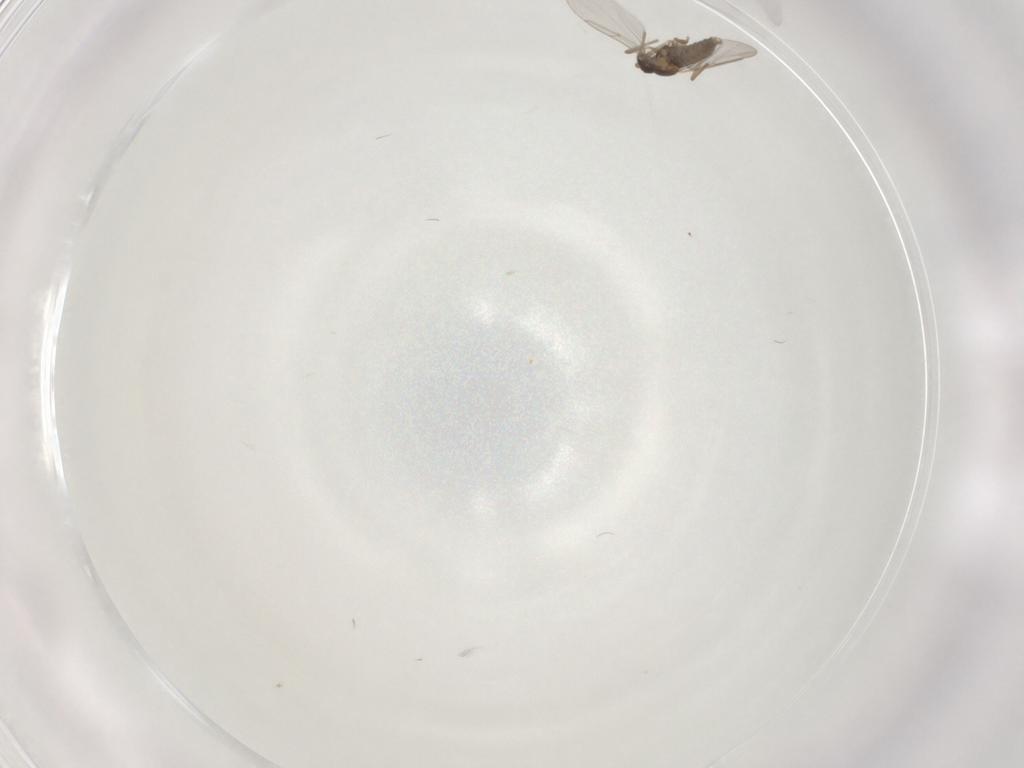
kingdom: Animalia
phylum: Arthropoda
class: Insecta
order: Diptera
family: Cecidomyiidae
